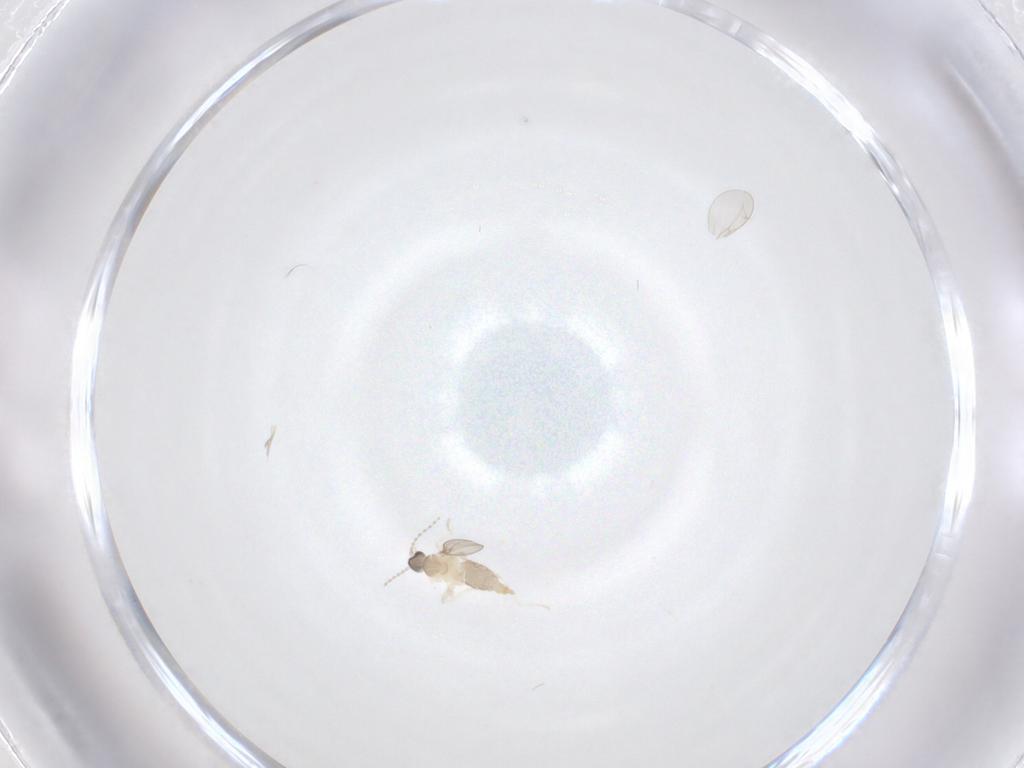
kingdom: Animalia
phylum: Arthropoda
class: Insecta
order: Diptera
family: Cecidomyiidae
